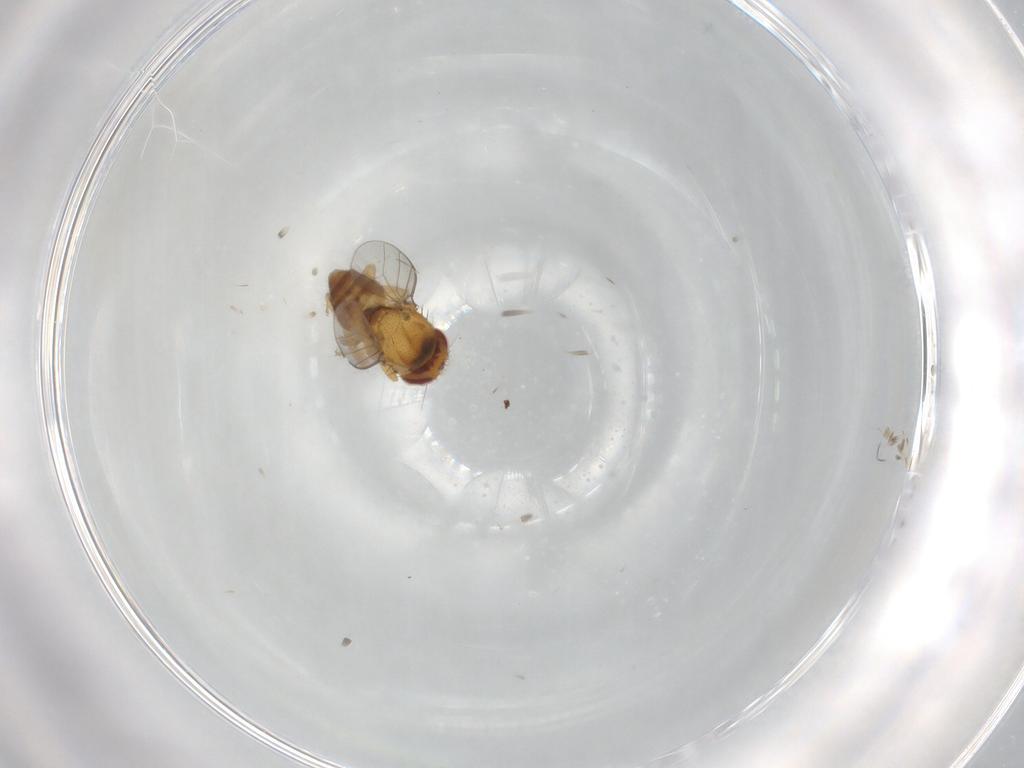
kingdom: Animalia
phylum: Arthropoda
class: Insecta
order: Diptera
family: Chloropidae
